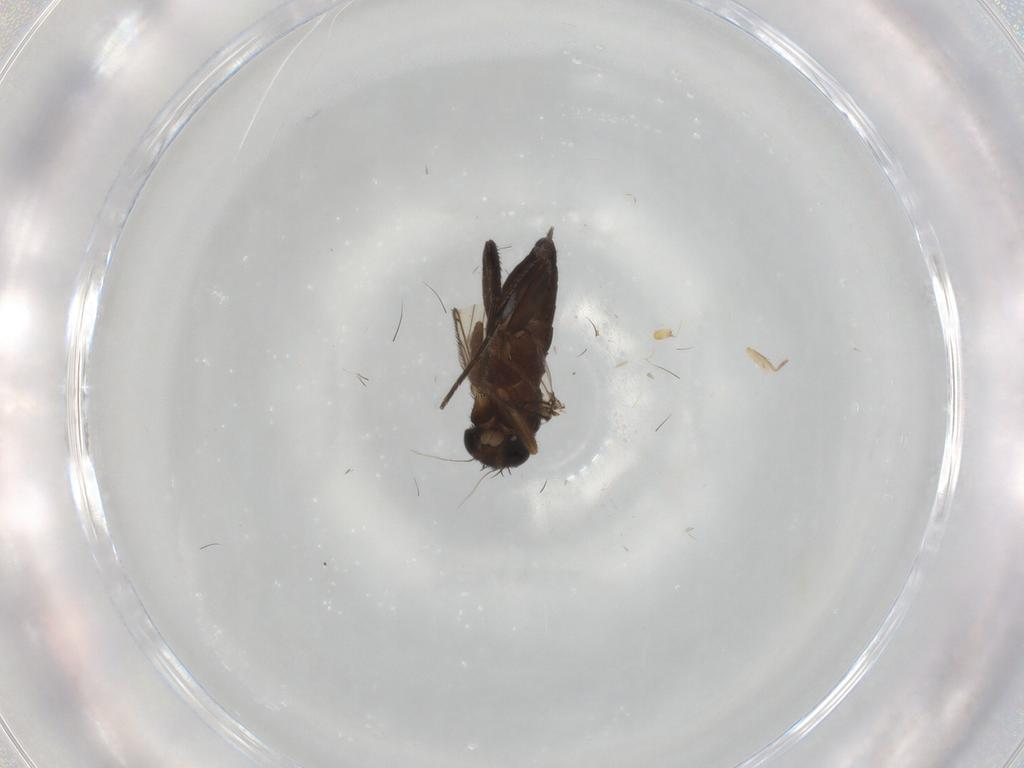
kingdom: Animalia
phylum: Arthropoda
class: Insecta
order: Diptera
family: Phoridae
